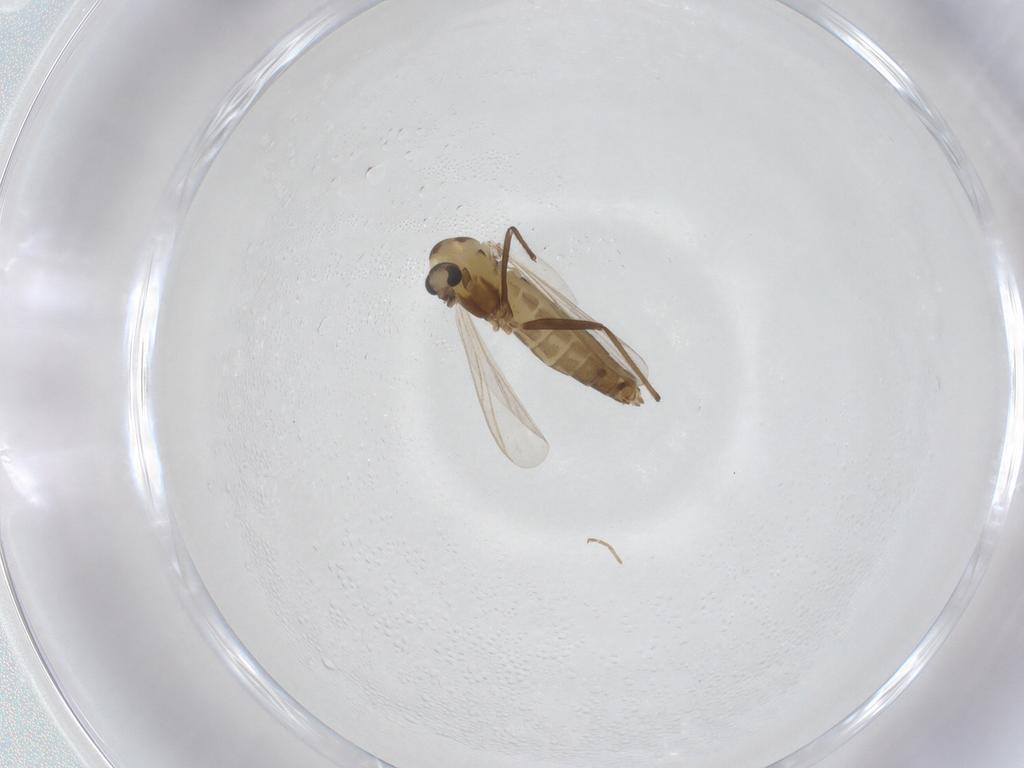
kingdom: Animalia
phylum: Arthropoda
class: Insecta
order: Diptera
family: Chironomidae
